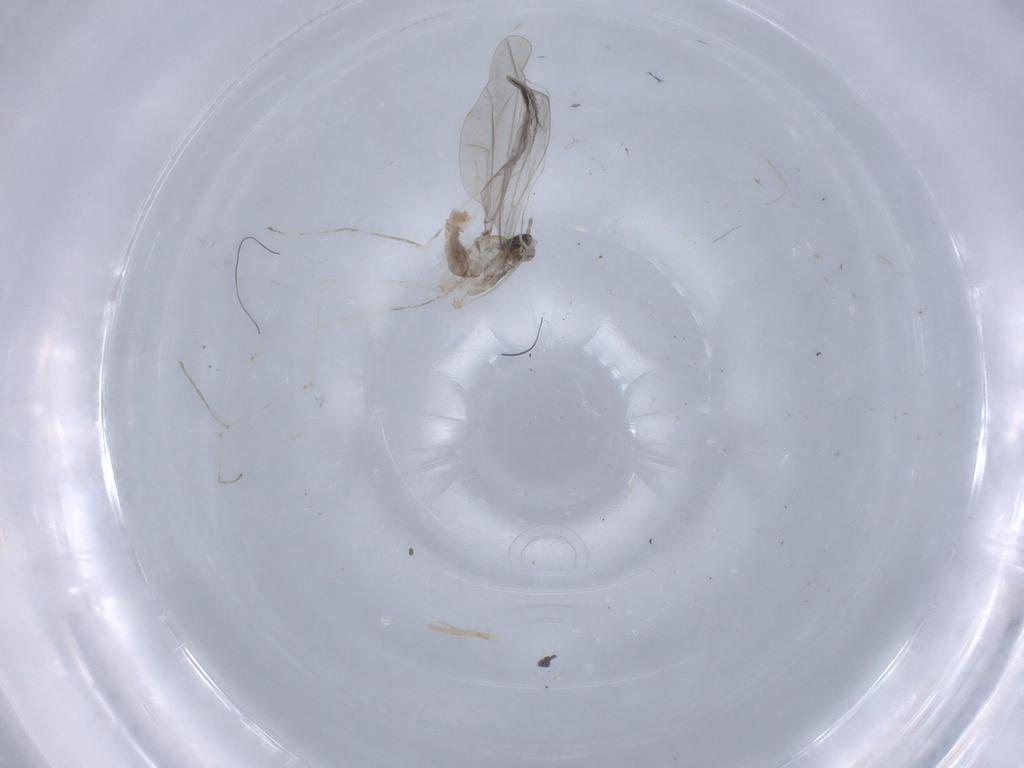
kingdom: Animalia
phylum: Arthropoda
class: Insecta
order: Diptera
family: Cecidomyiidae
